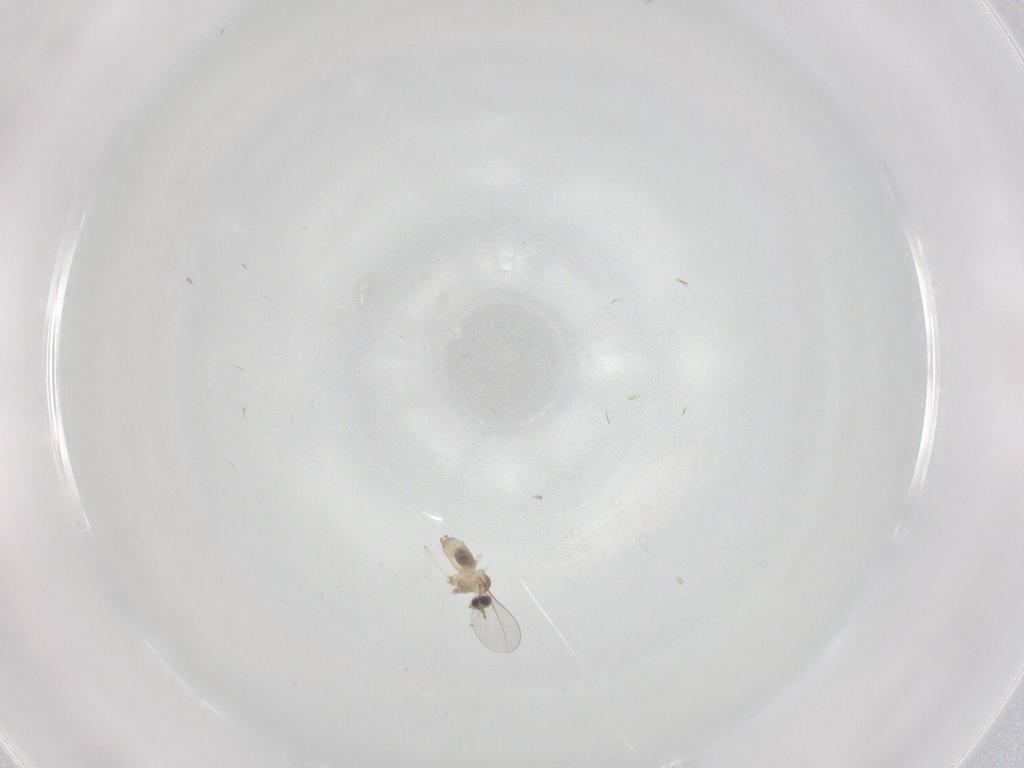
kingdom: Animalia
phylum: Arthropoda
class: Insecta
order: Diptera
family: Cecidomyiidae
